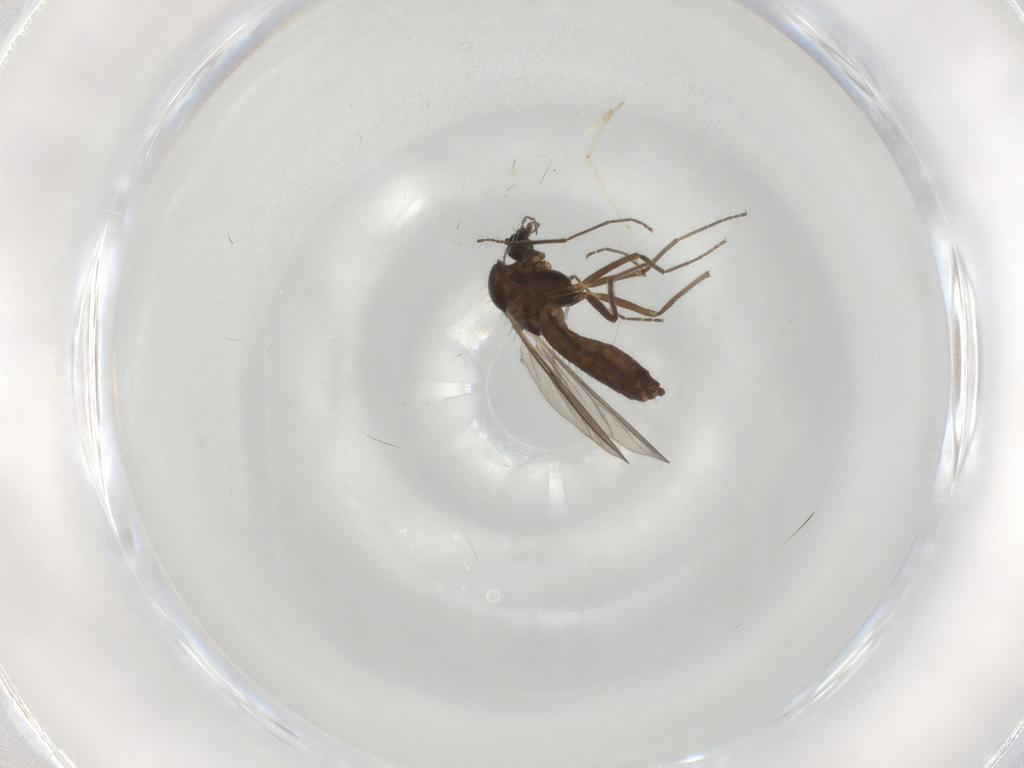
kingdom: Animalia
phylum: Arthropoda
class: Insecta
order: Diptera
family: Chironomidae
